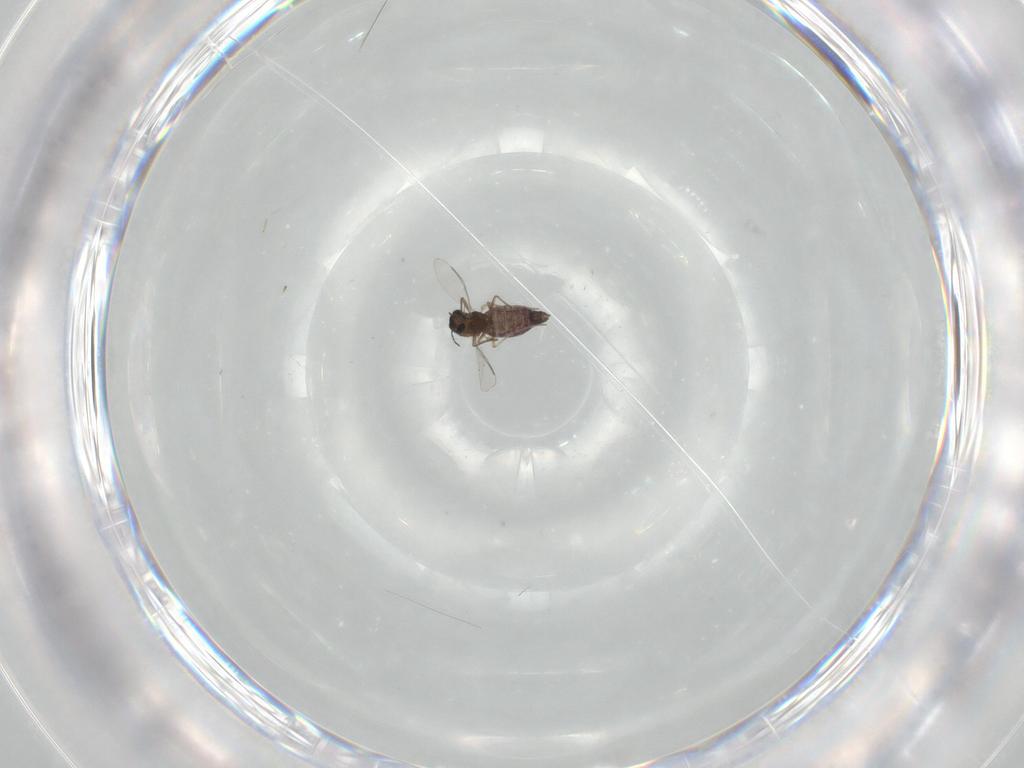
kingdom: Animalia
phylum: Arthropoda
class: Insecta
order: Diptera
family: Chironomidae
